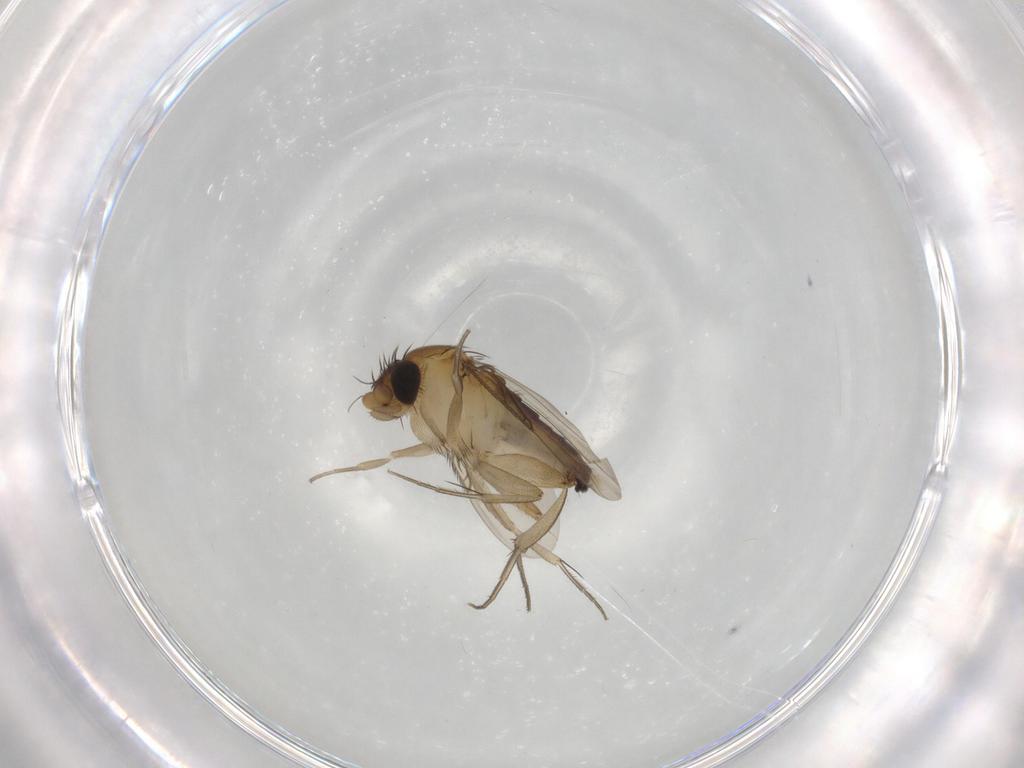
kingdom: Animalia
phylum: Arthropoda
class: Insecta
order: Diptera
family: Phoridae
